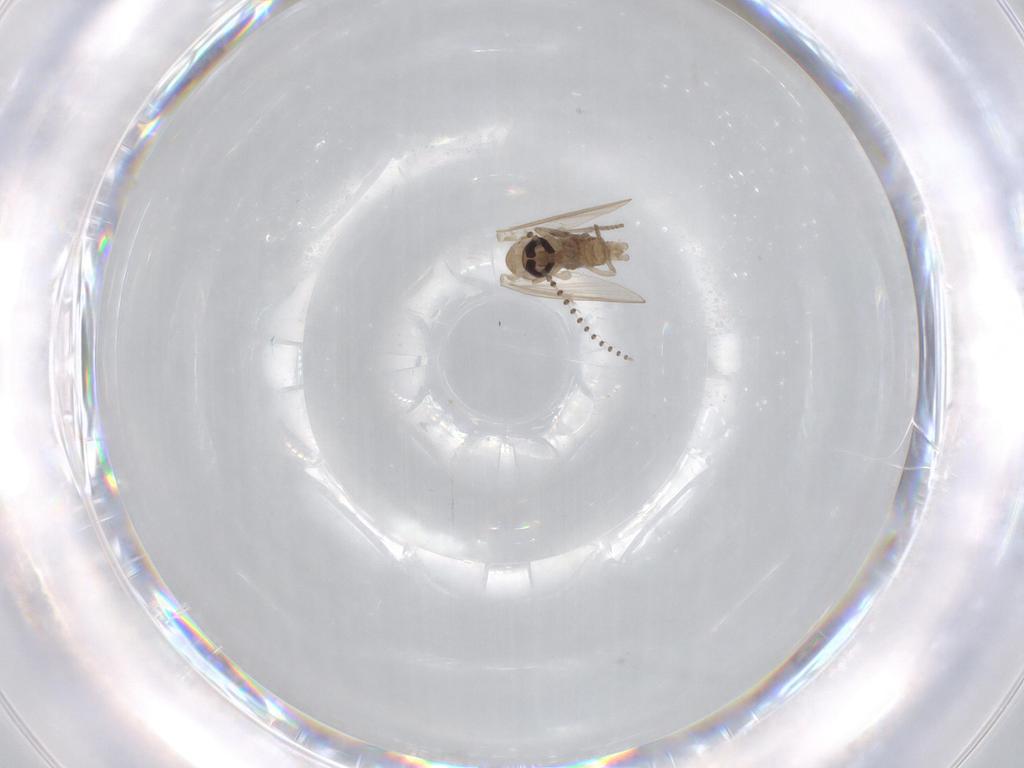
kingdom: Animalia
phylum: Arthropoda
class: Insecta
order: Diptera
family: Psychodidae
